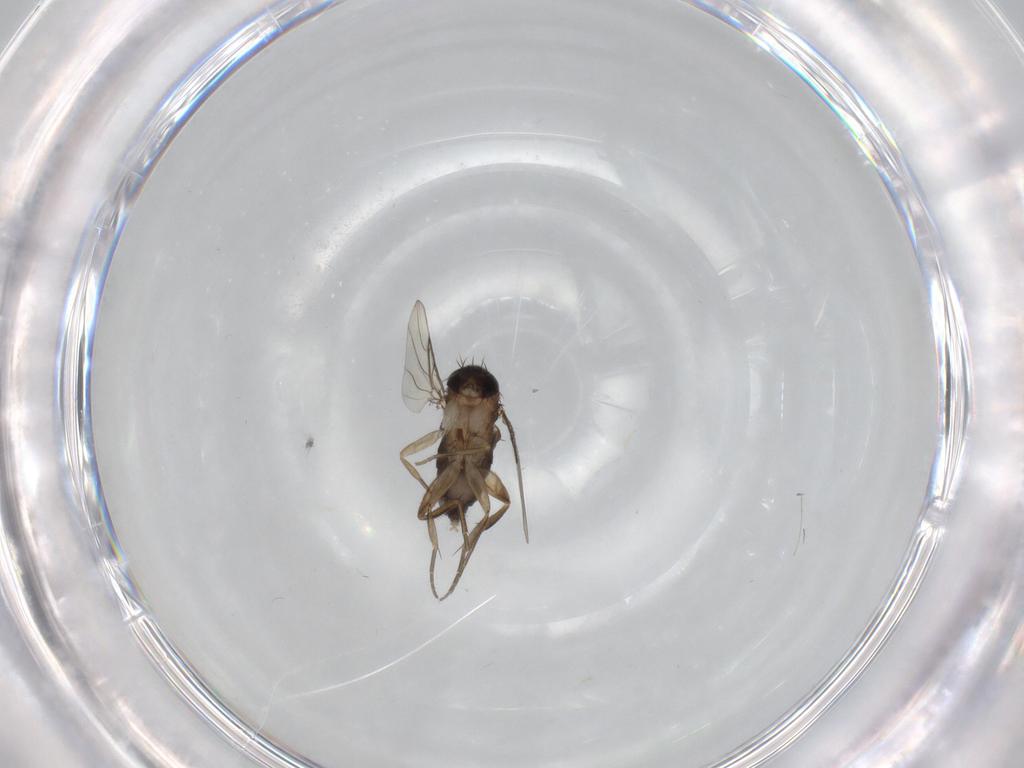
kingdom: Animalia
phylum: Arthropoda
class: Insecta
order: Diptera
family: Phoridae
